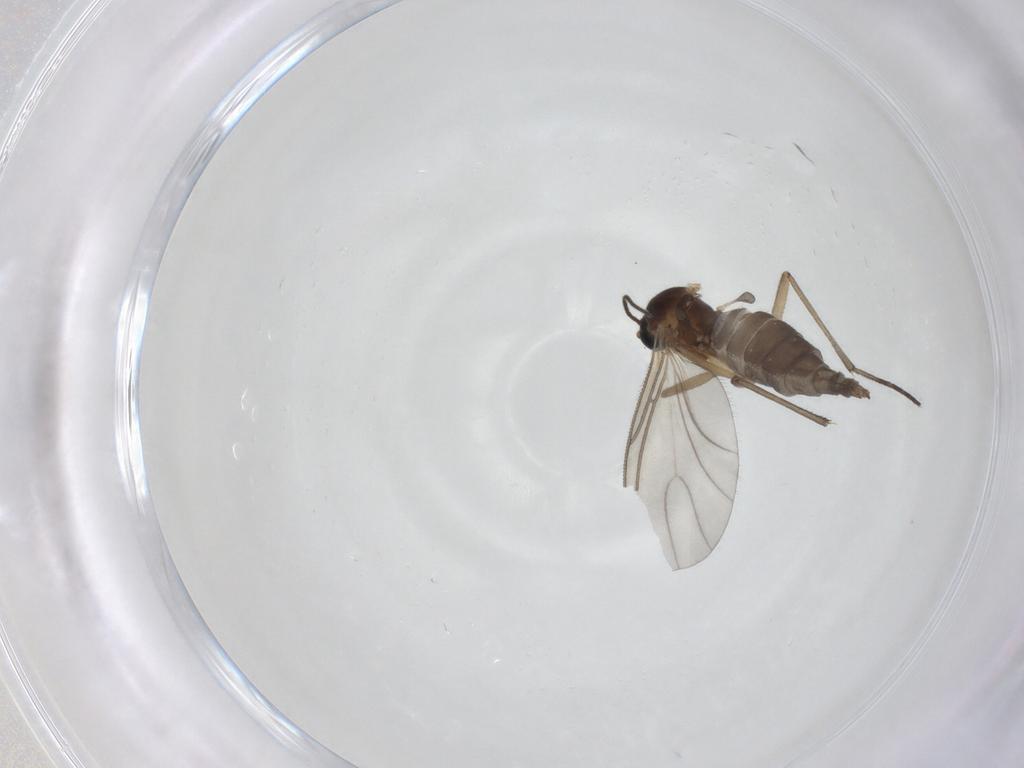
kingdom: Animalia
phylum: Arthropoda
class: Insecta
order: Diptera
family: Sciaridae
